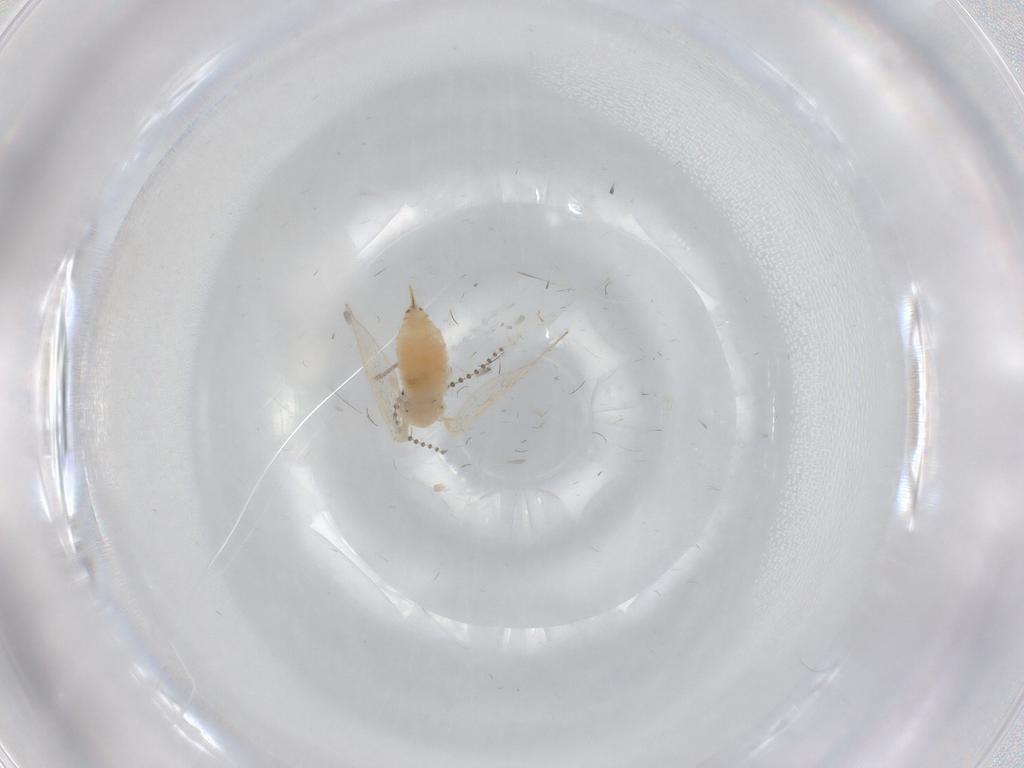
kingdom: Animalia
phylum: Arthropoda
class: Insecta
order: Diptera
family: Psychodidae
